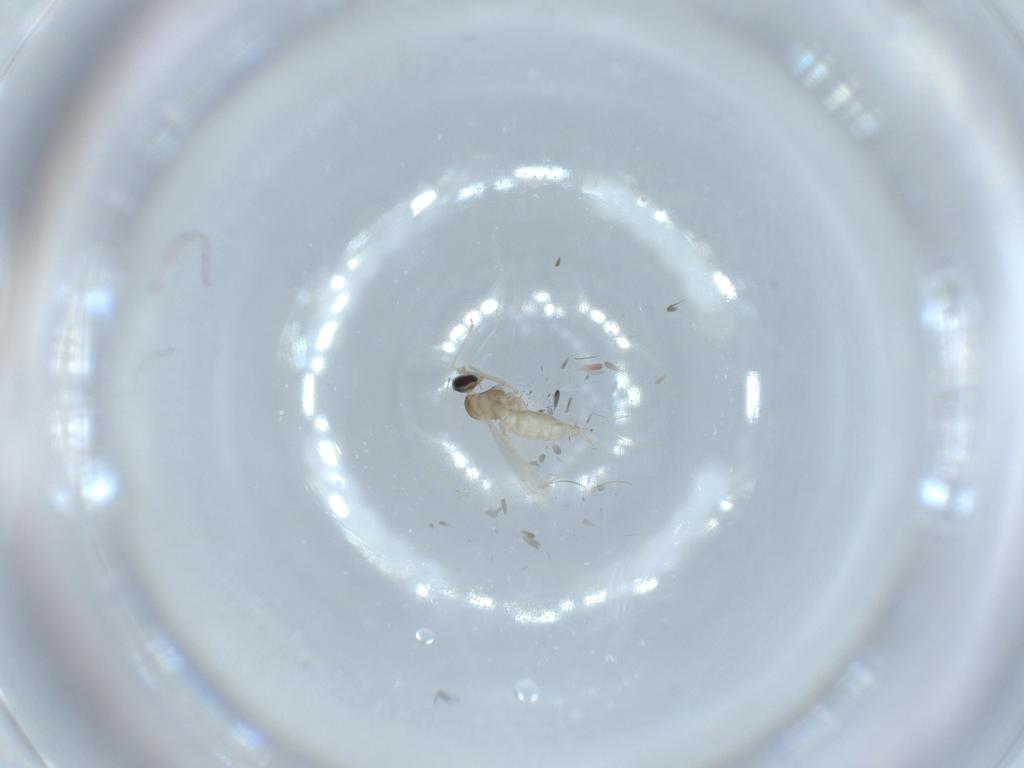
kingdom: Animalia
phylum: Arthropoda
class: Insecta
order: Diptera
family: Cecidomyiidae
